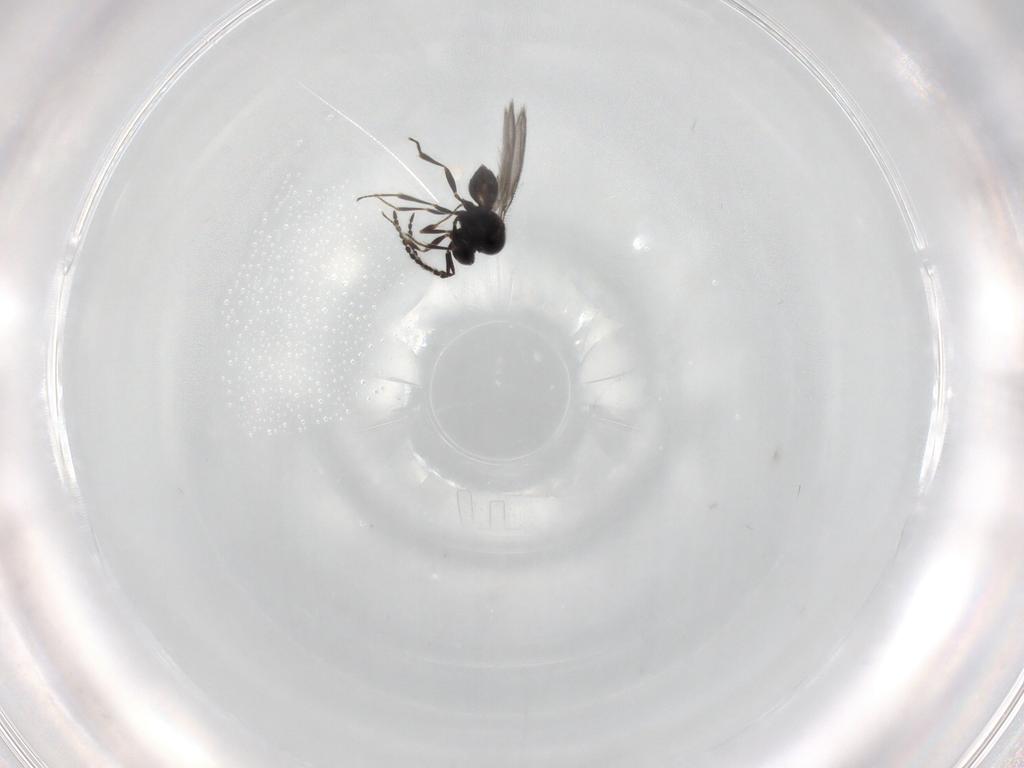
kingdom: Animalia
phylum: Arthropoda
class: Insecta
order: Hymenoptera
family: Scelionidae
